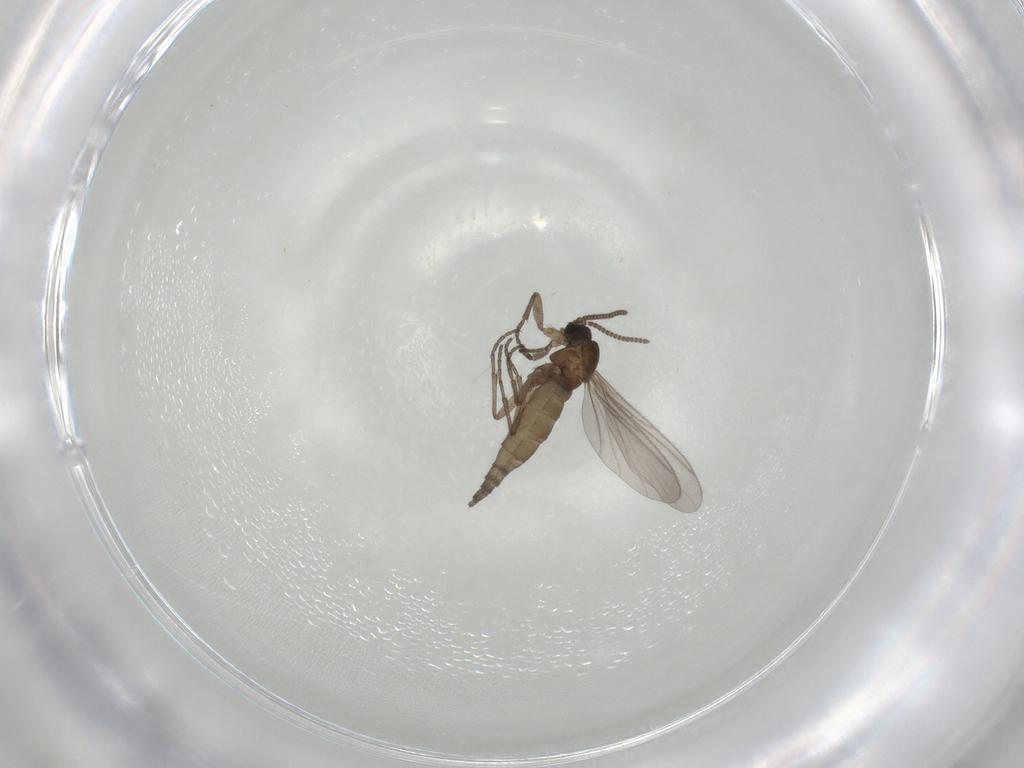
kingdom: Animalia
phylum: Arthropoda
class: Insecta
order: Diptera
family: Sciaridae
